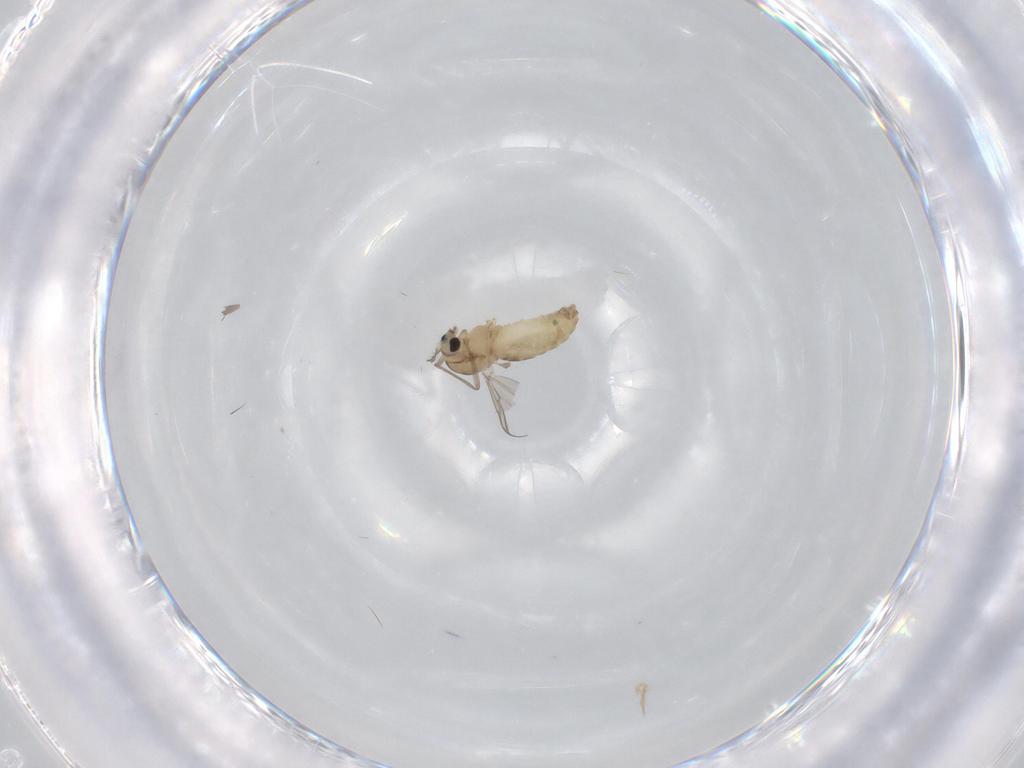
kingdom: Animalia
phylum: Arthropoda
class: Insecta
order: Diptera
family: Chironomidae
